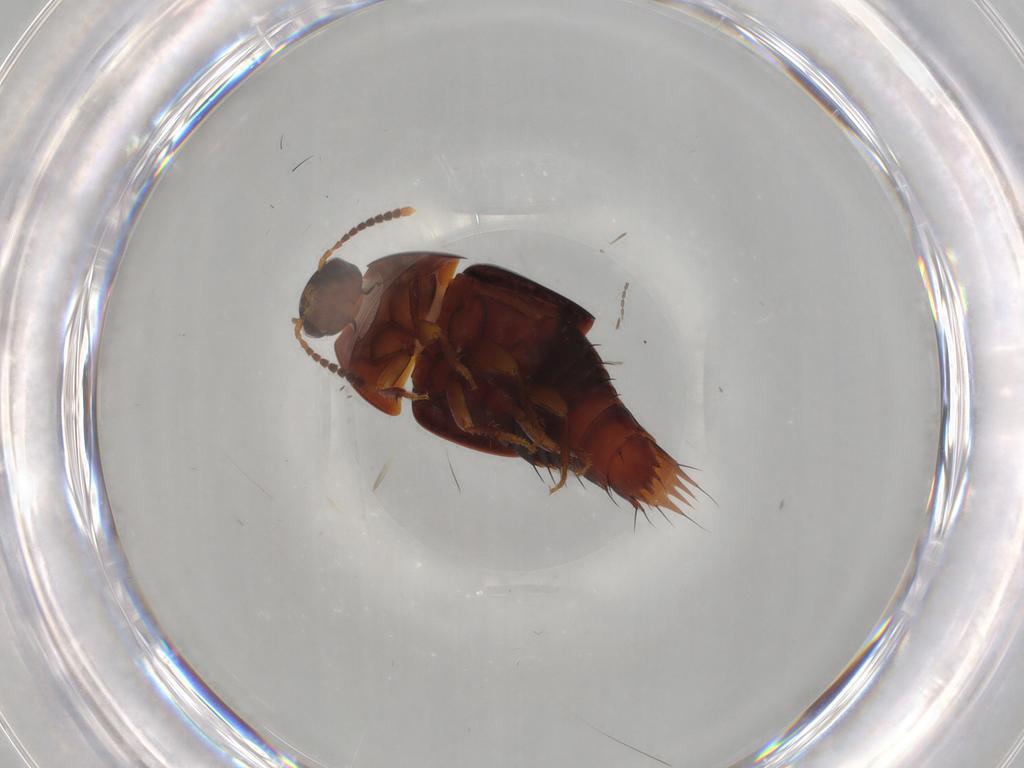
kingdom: Animalia
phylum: Arthropoda
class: Insecta
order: Coleoptera
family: Staphylinidae
